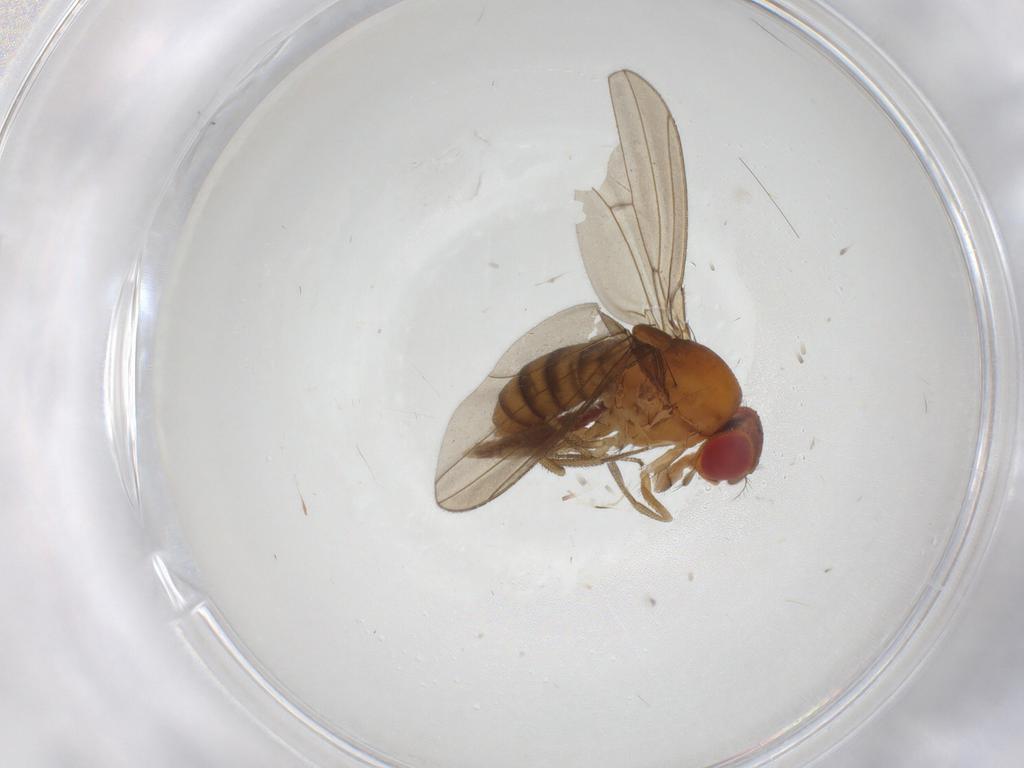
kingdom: Animalia
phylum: Arthropoda
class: Insecta
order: Diptera
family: Drosophilidae
